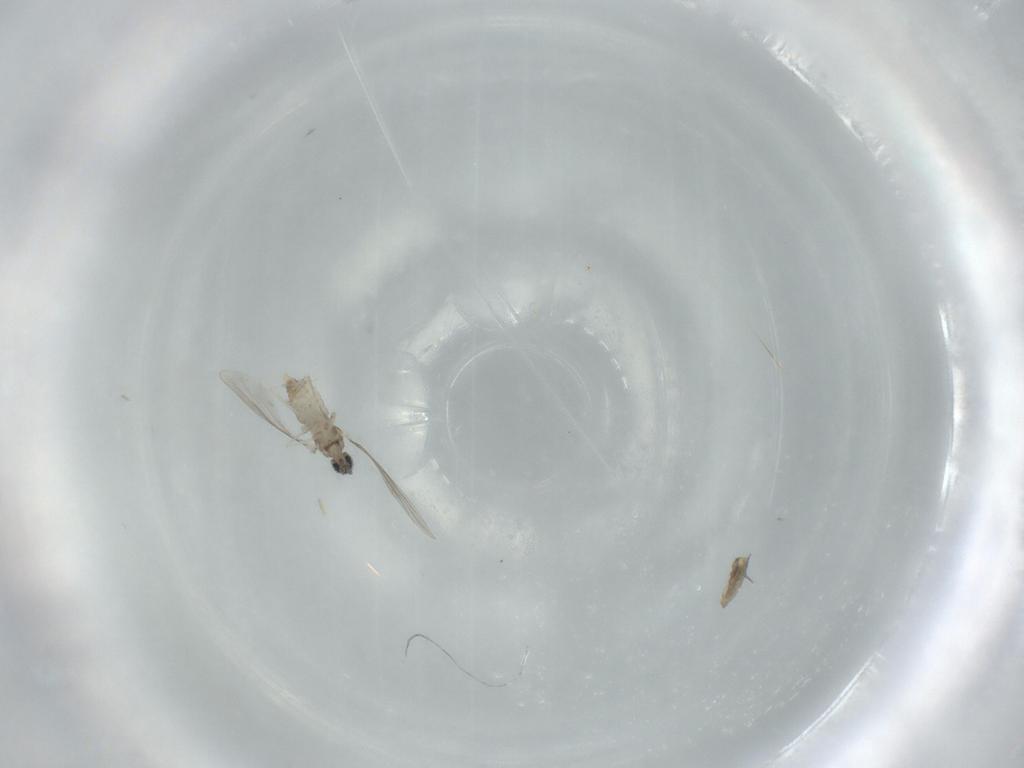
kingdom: Animalia
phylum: Arthropoda
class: Insecta
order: Diptera
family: Cecidomyiidae
